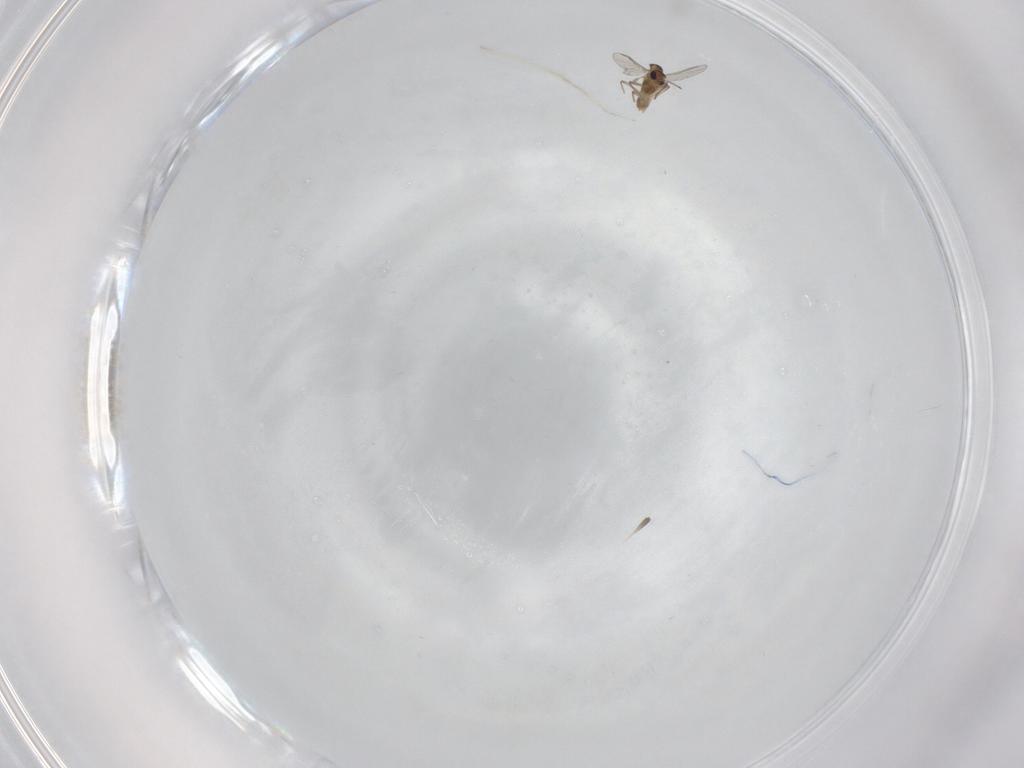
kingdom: Animalia
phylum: Arthropoda
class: Insecta
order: Diptera
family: Chironomidae
